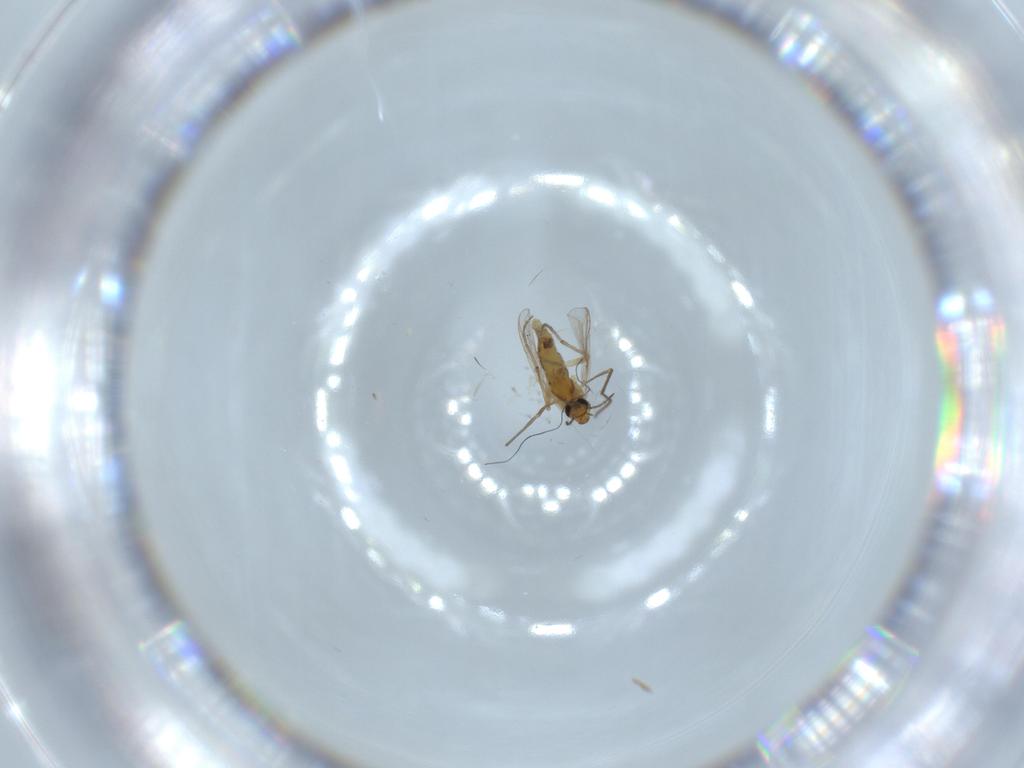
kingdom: Animalia
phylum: Arthropoda
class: Insecta
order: Diptera
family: Chironomidae
